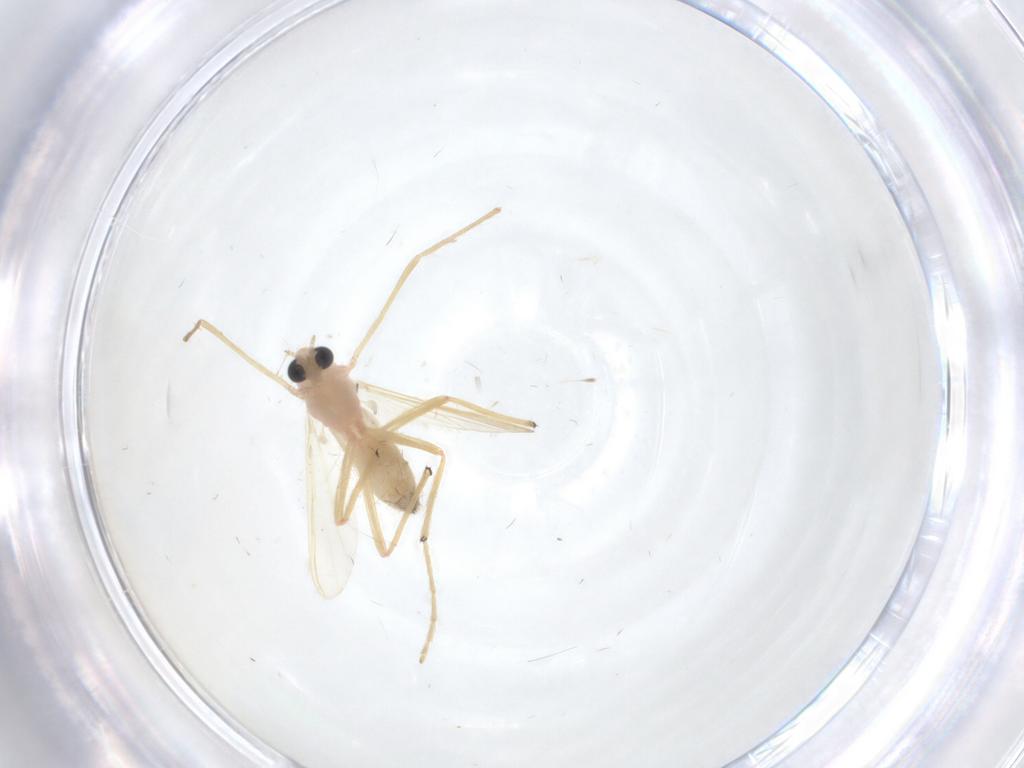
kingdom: Animalia
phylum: Arthropoda
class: Insecta
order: Diptera
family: Chironomidae
